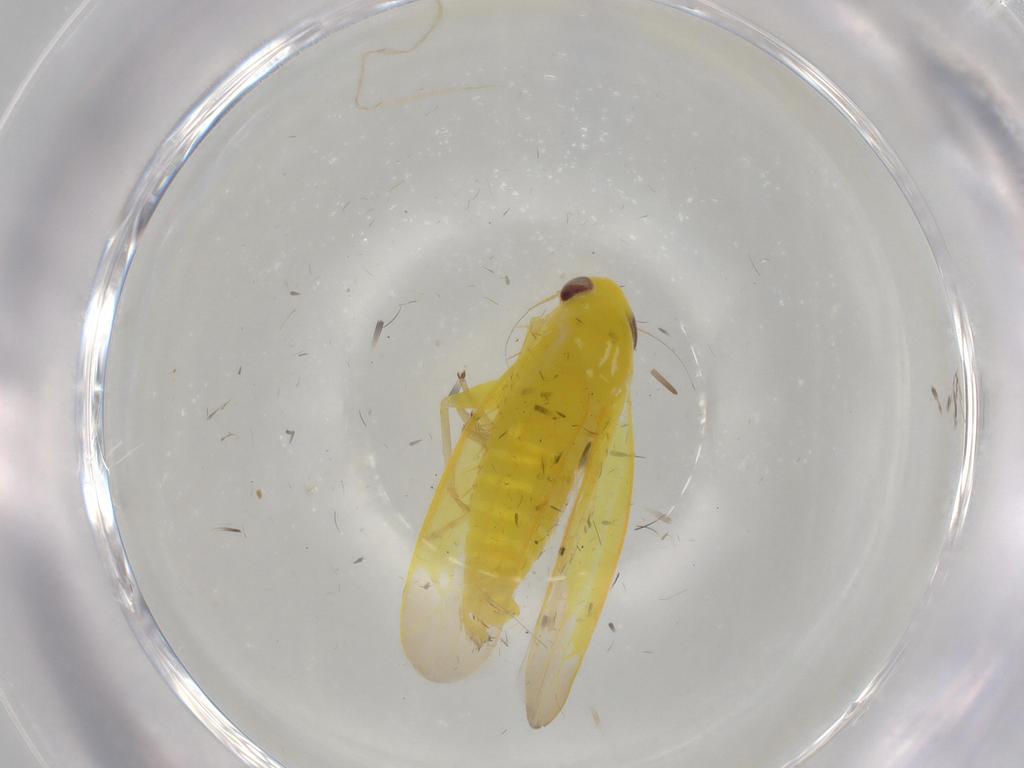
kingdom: Animalia
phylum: Arthropoda
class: Insecta
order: Hemiptera
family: Cicadellidae
